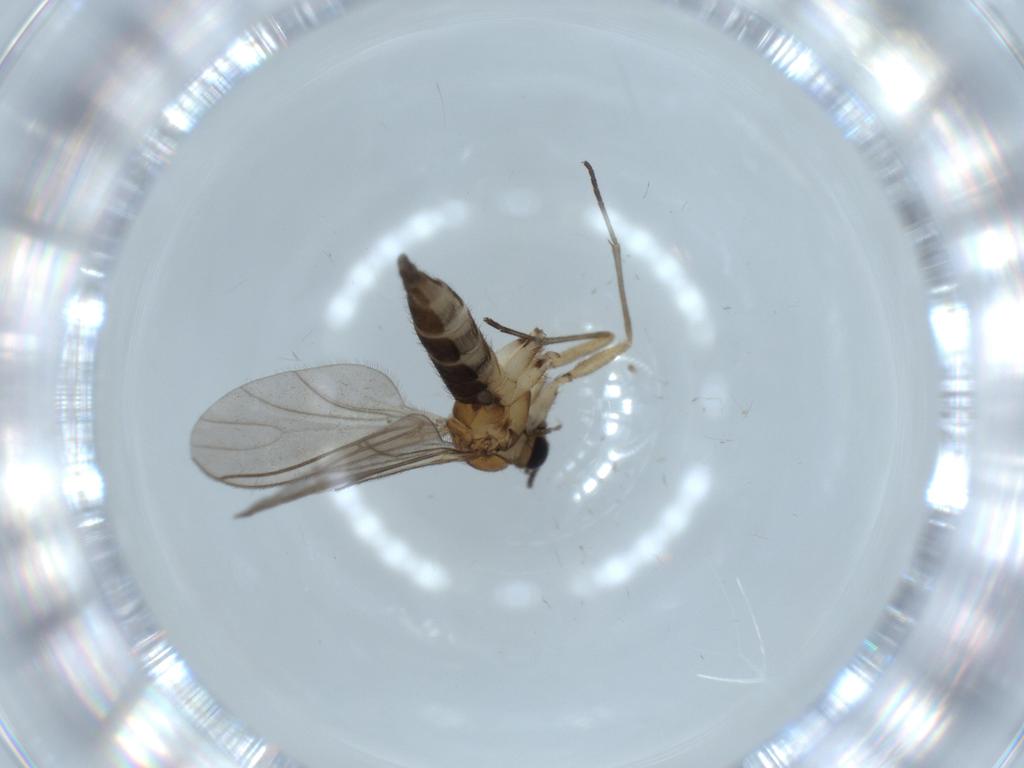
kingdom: Animalia
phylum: Arthropoda
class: Insecta
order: Diptera
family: Sciaridae
